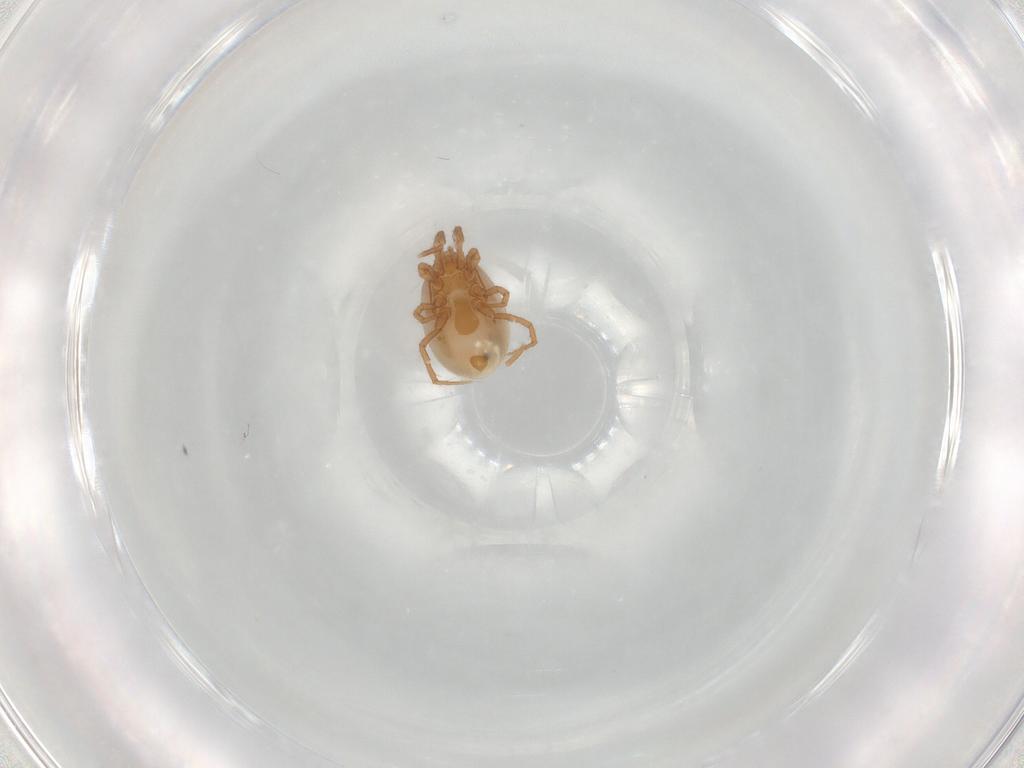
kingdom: Animalia
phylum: Arthropoda
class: Arachnida
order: Mesostigmata
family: Parasitidae
